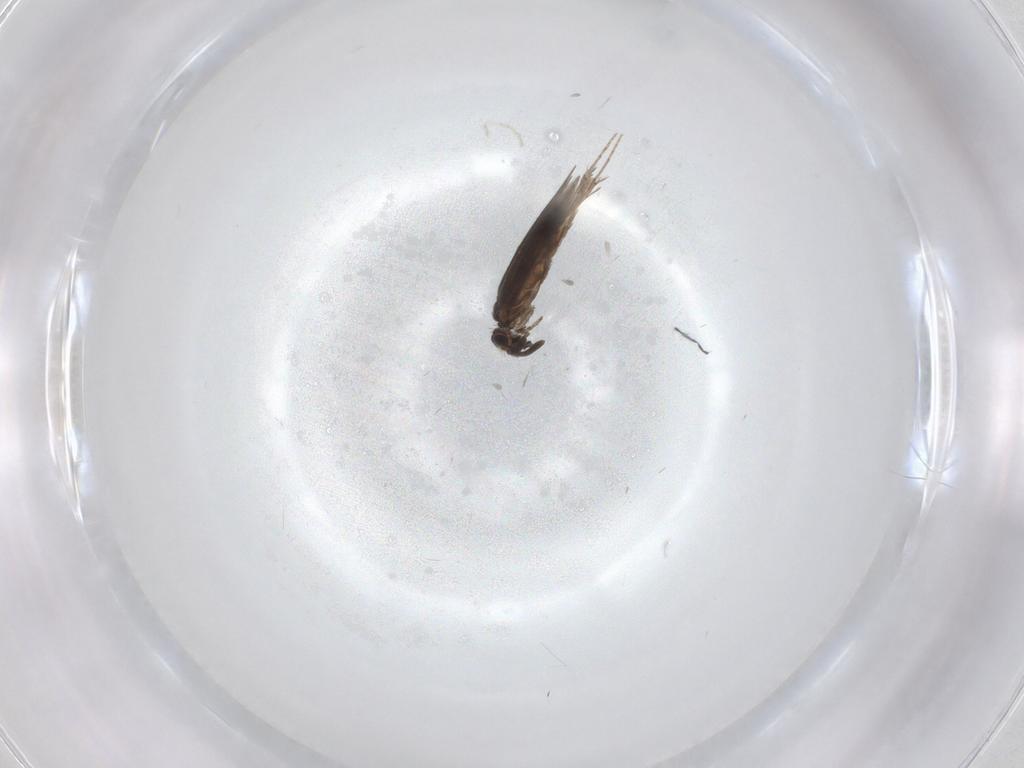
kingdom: Animalia
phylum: Arthropoda
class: Insecta
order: Trichoptera
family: Hydroptilidae
